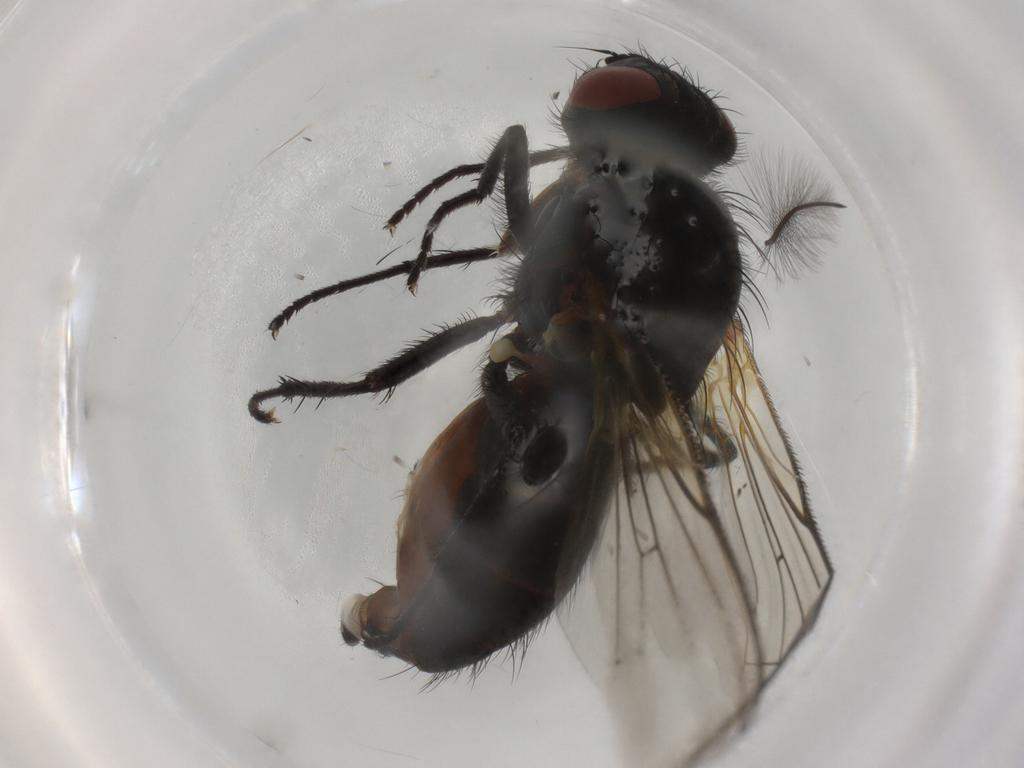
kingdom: Animalia
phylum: Arthropoda
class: Insecta
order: Diptera
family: Anthomyiidae
